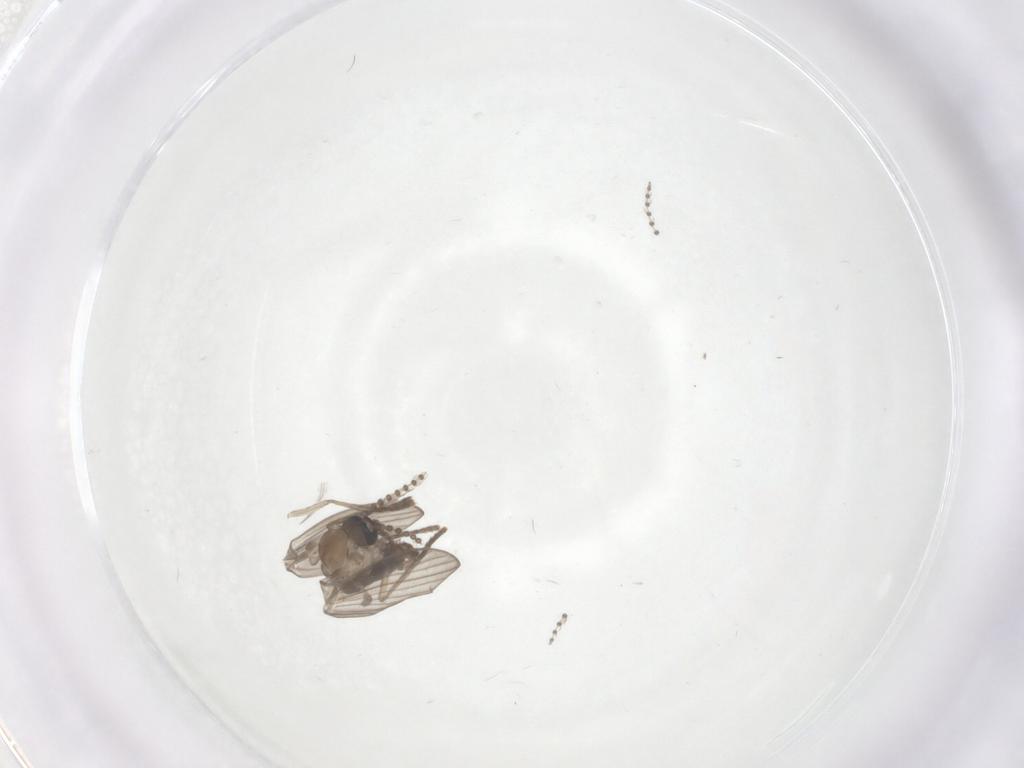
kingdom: Animalia
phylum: Arthropoda
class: Insecta
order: Diptera
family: Psychodidae
